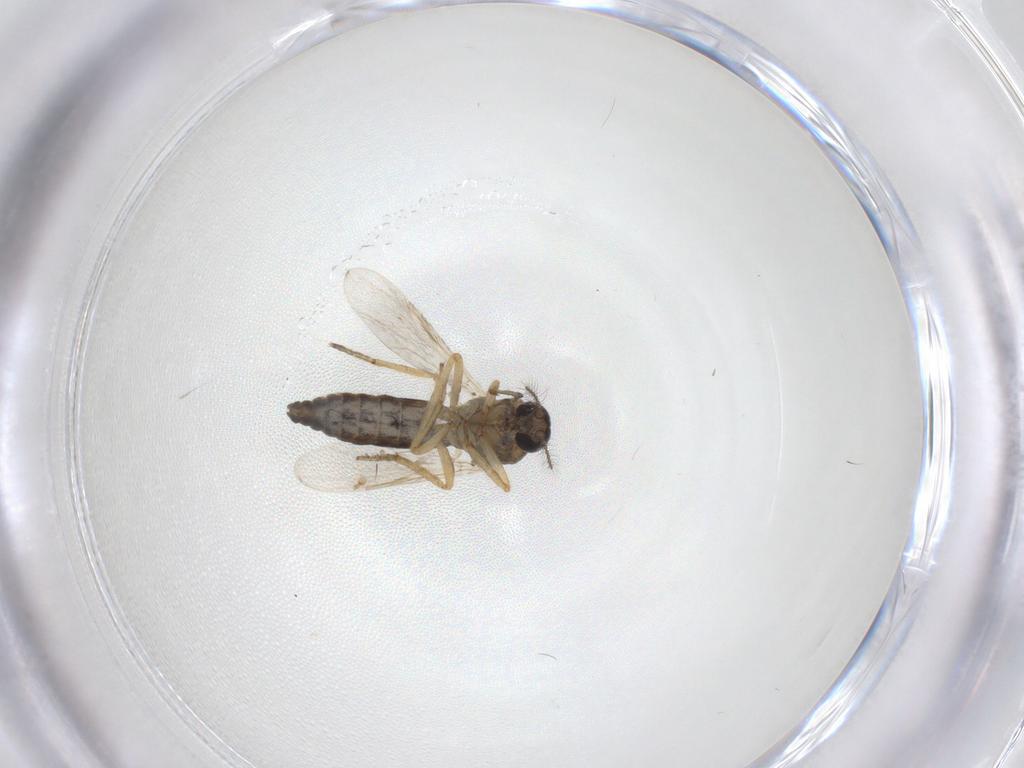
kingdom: Animalia
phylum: Arthropoda
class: Insecta
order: Diptera
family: Ceratopogonidae
